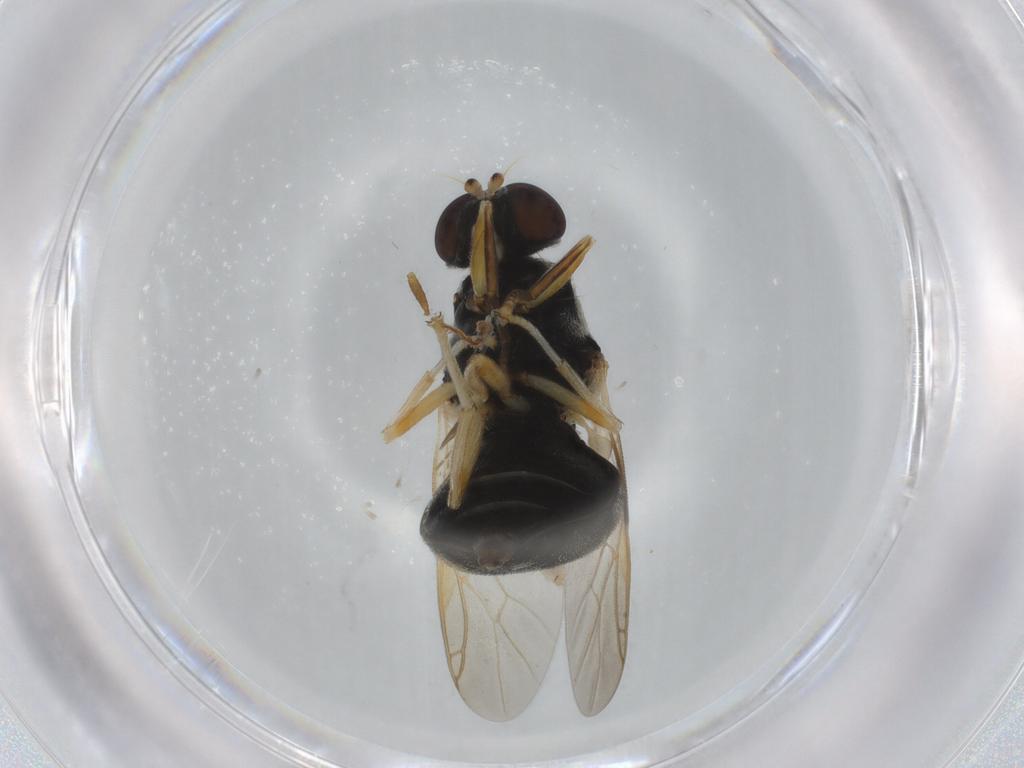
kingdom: Animalia
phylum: Arthropoda
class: Insecta
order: Diptera
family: Stratiomyidae
